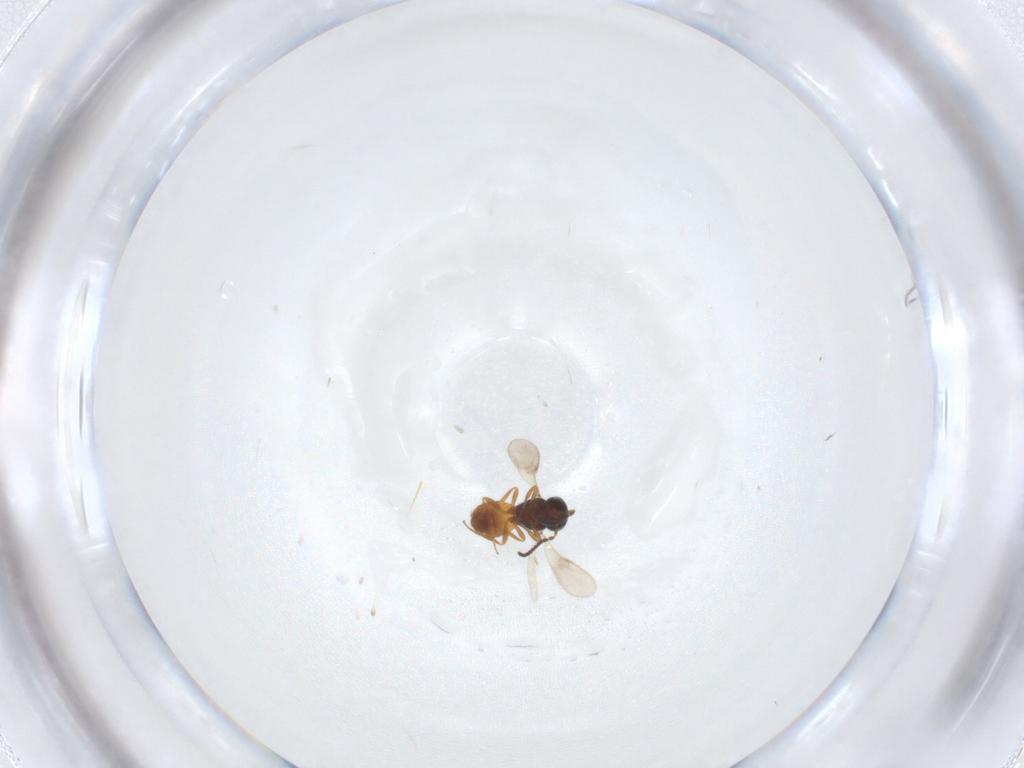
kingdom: Animalia
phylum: Arthropoda
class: Insecta
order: Hymenoptera
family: Scelionidae
